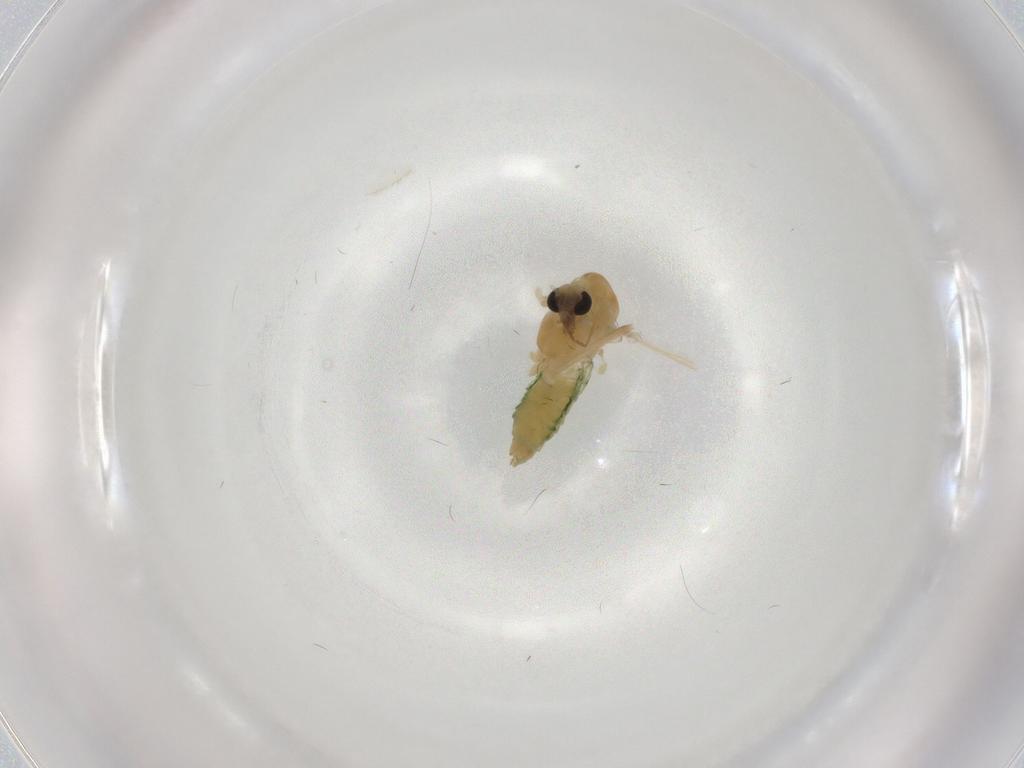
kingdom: Animalia
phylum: Arthropoda
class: Insecta
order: Diptera
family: Chironomidae
